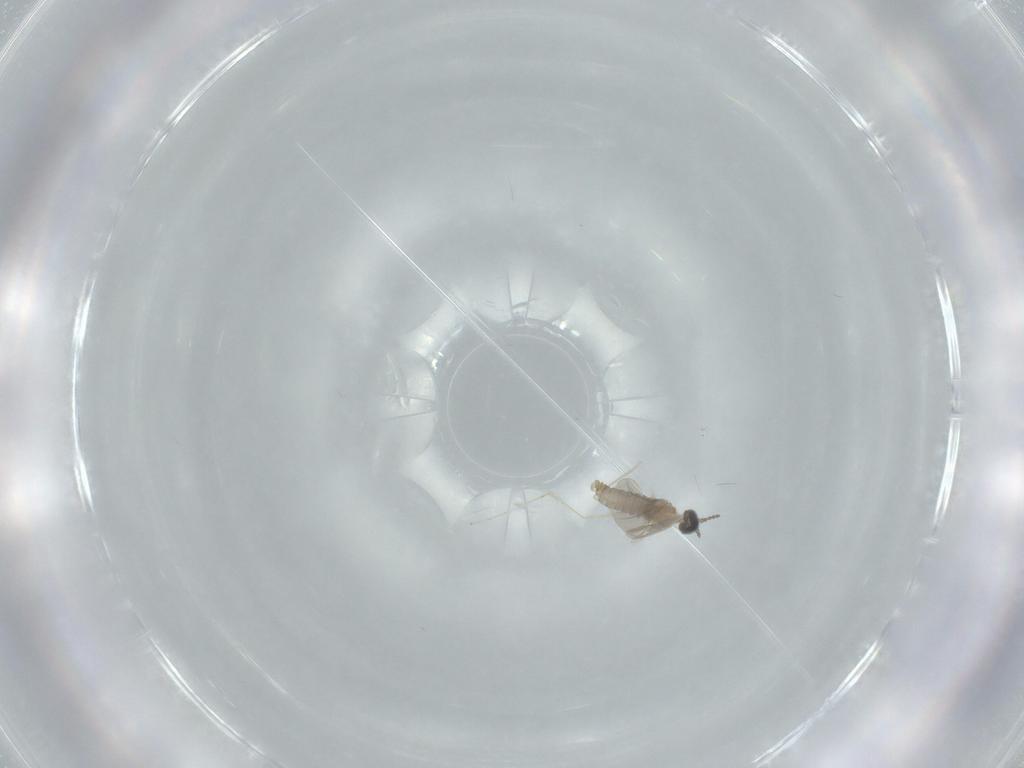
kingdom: Animalia
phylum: Arthropoda
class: Insecta
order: Diptera
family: Cecidomyiidae
